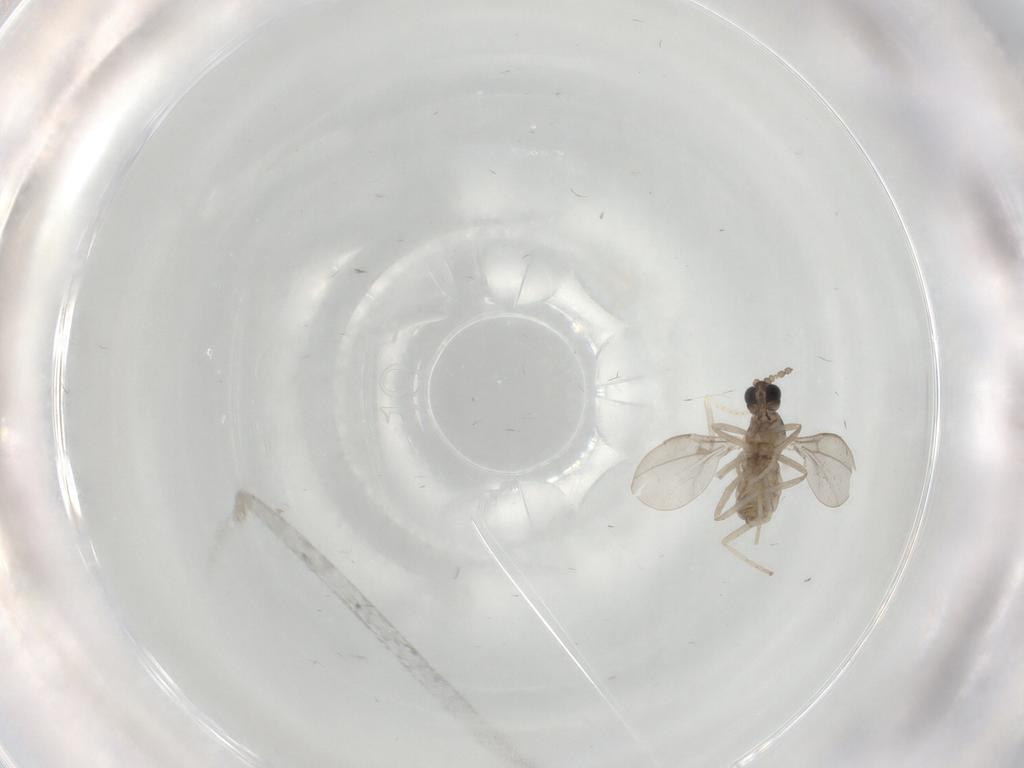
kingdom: Animalia
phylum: Arthropoda
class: Insecta
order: Diptera
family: Cecidomyiidae
